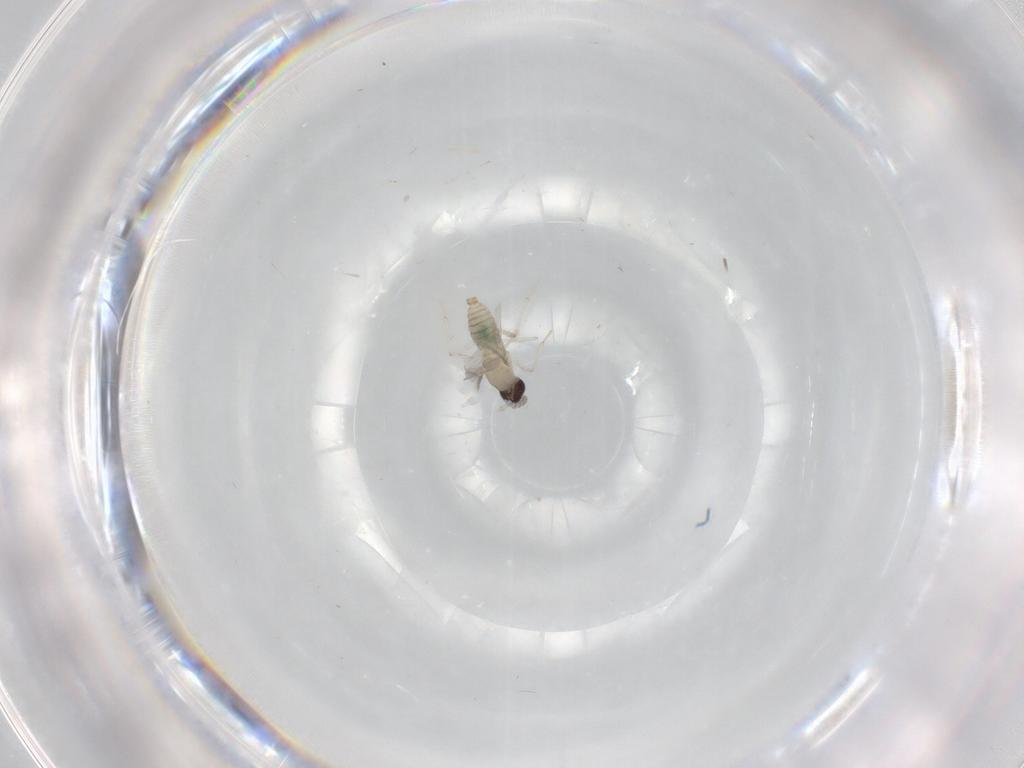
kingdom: Animalia
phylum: Arthropoda
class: Insecta
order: Diptera
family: Cecidomyiidae
